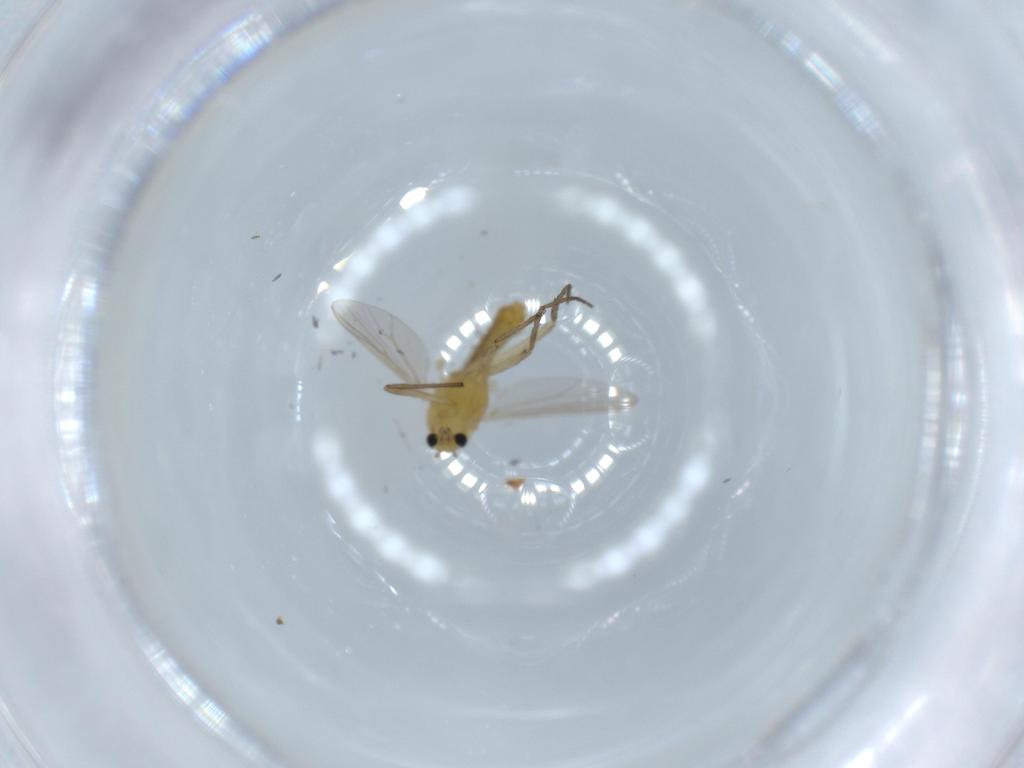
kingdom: Animalia
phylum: Arthropoda
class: Insecta
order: Diptera
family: Chironomidae
